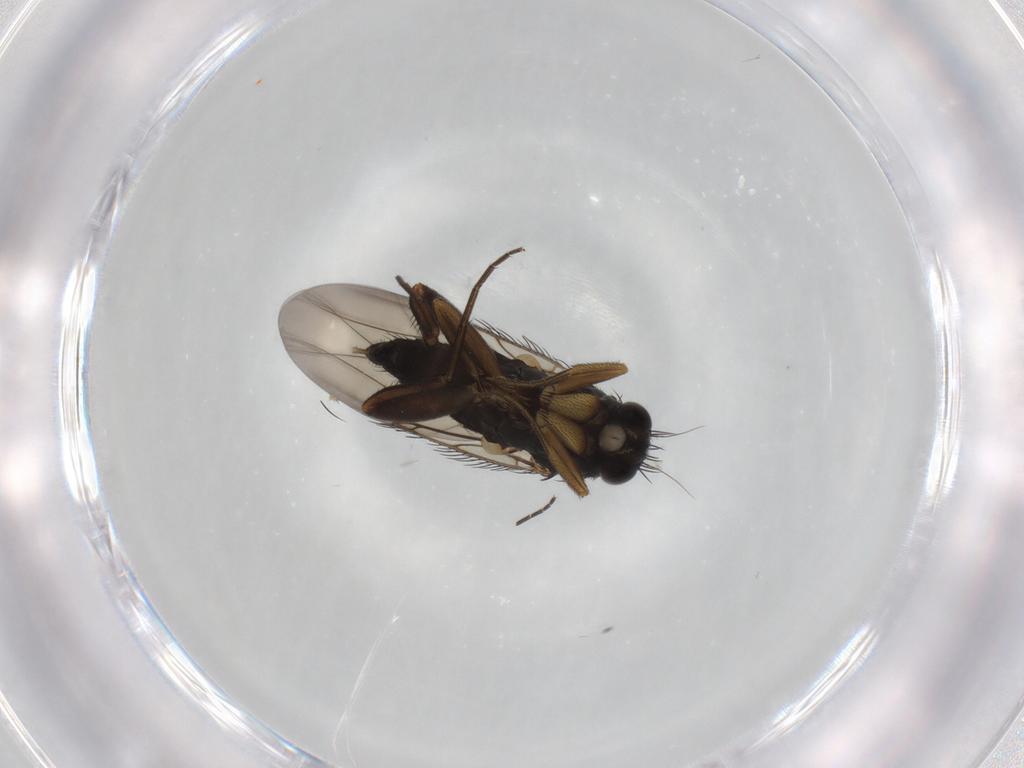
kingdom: Animalia
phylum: Arthropoda
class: Insecta
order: Diptera
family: Phoridae
